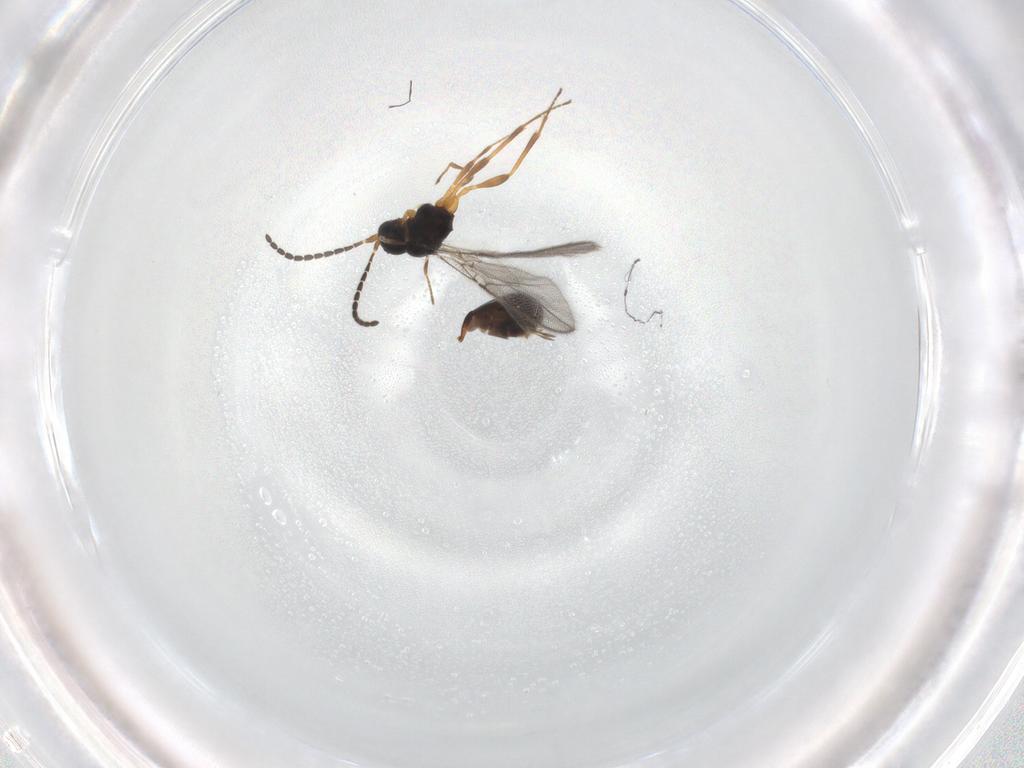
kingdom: Animalia
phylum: Arthropoda
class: Insecta
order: Hymenoptera
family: Braconidae
